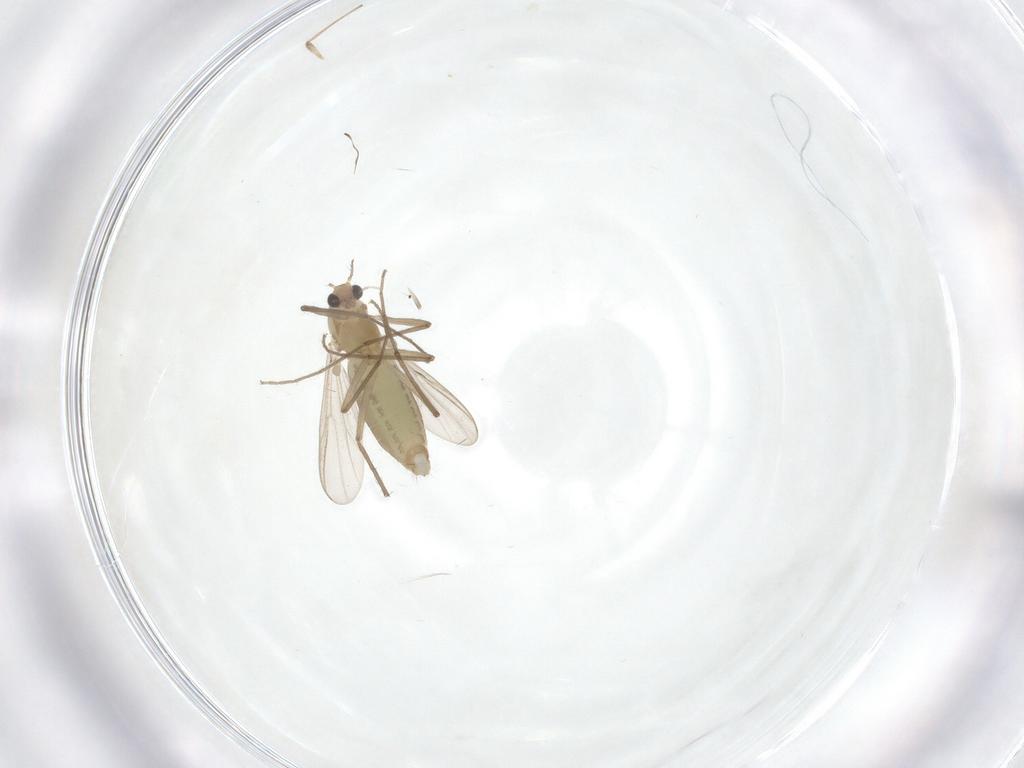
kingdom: Animalia
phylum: Arthropoda
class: Insecta
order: Diptera
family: Chironomidae
